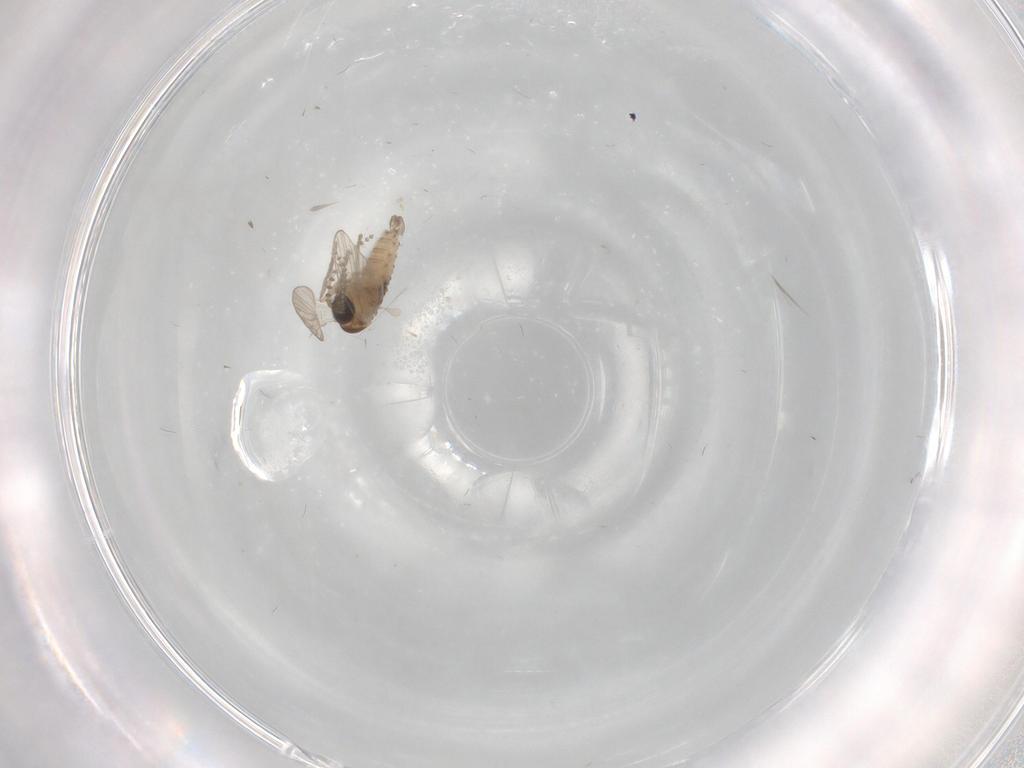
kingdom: Animalia
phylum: Arthropoda
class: Insecta
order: Diptera
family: Psychodidae
